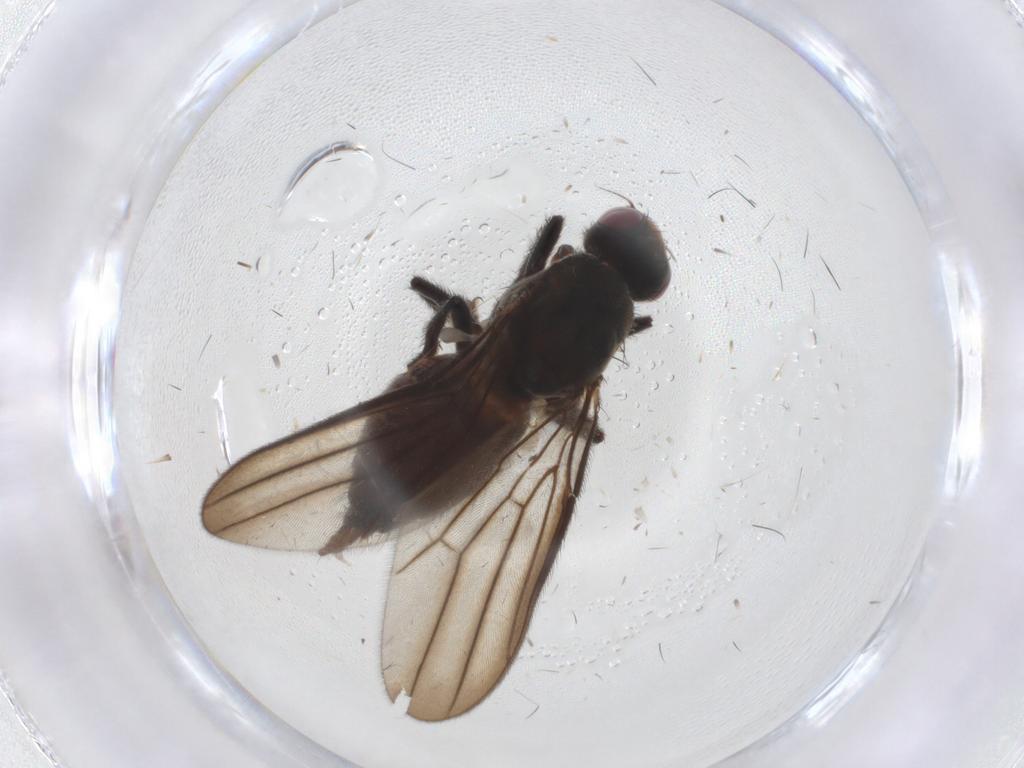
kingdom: Animalia
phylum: Arthropoda
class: Insecta
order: Diptera
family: Chloropidae
